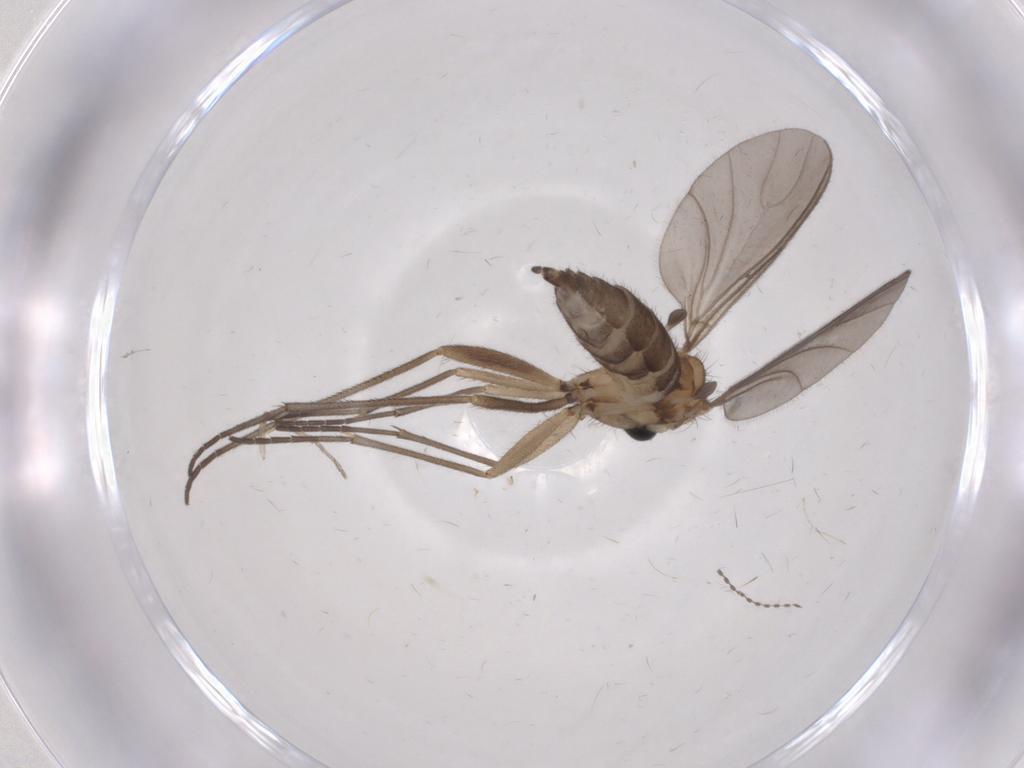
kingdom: Animalia
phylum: Arthropoda
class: Insecta
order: Diptera
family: Sciaridae
